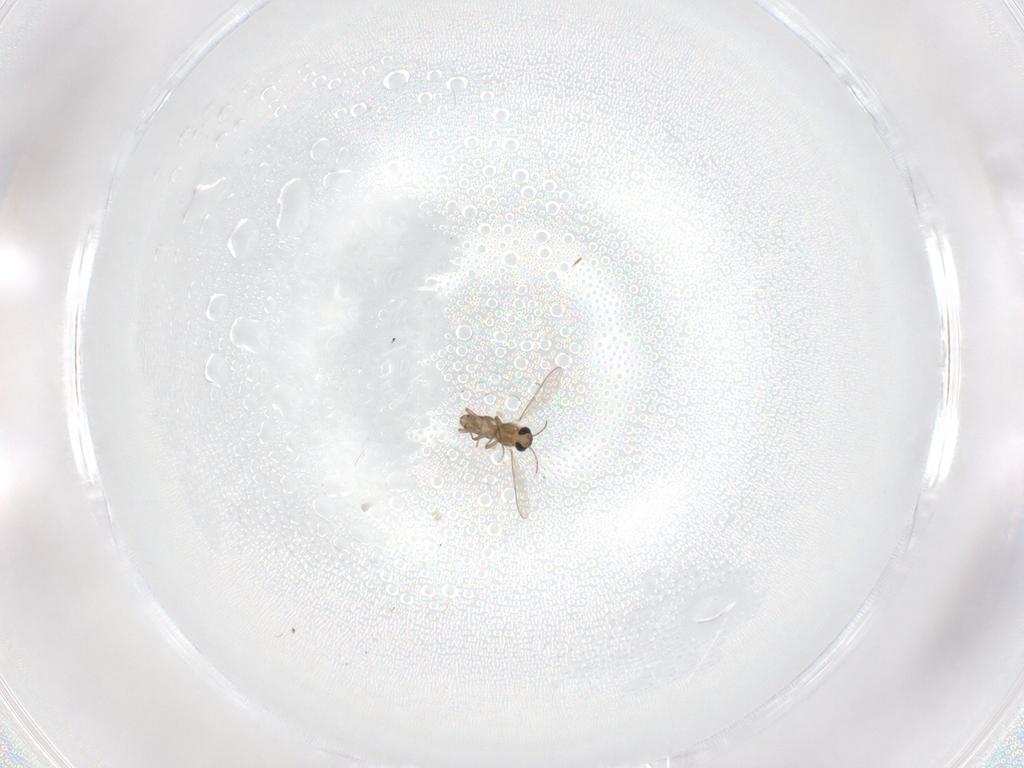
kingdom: Animalia
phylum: Arthropoda
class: Insecta
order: Diptera
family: Chironomidae
